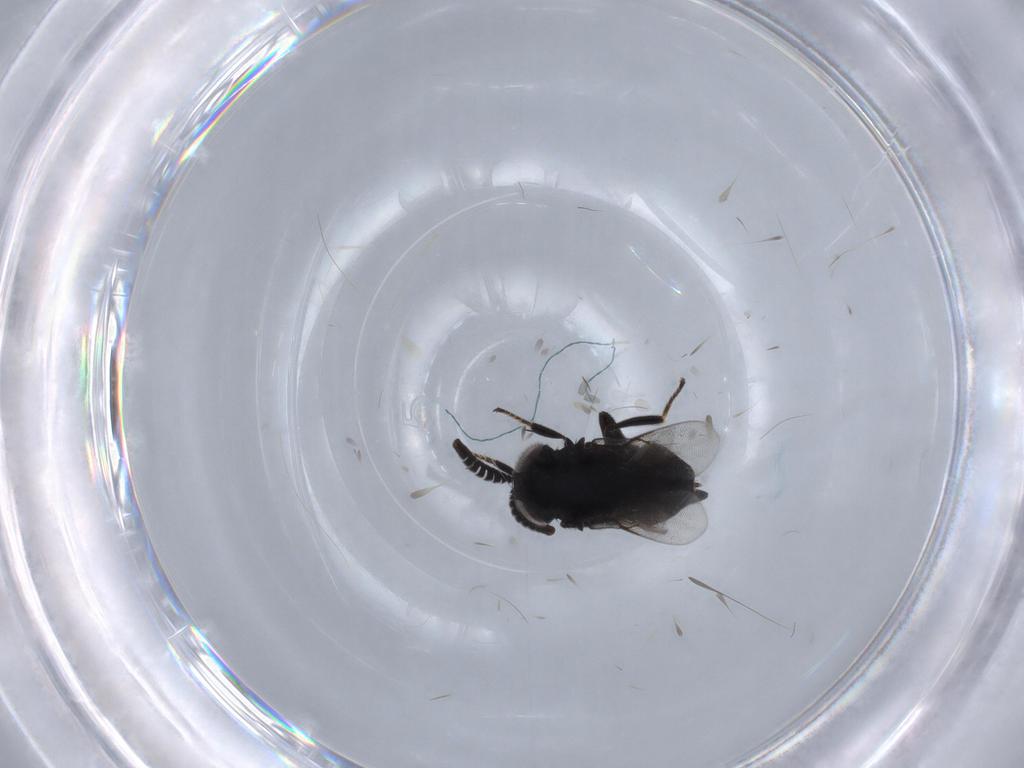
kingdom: Animalia
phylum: Arthropoda
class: Insecta
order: Hymenoptera
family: Encyrtidae
